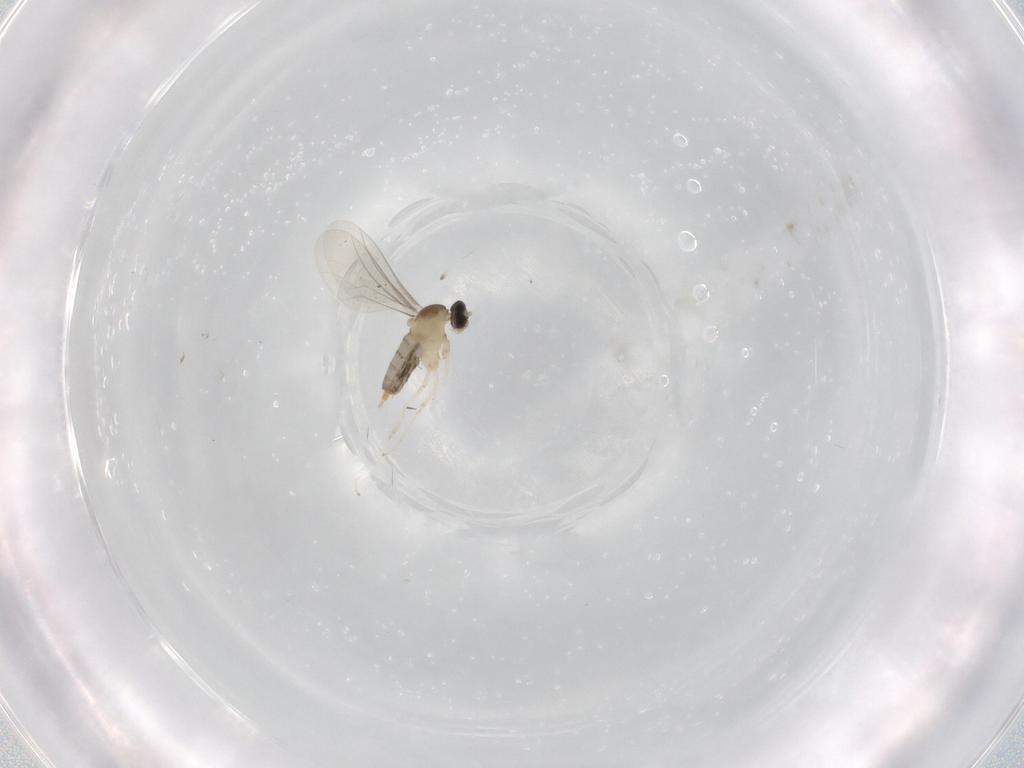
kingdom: Animalia
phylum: Arthropoda
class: Insecta
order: Diptera
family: Cecidomyiidae
